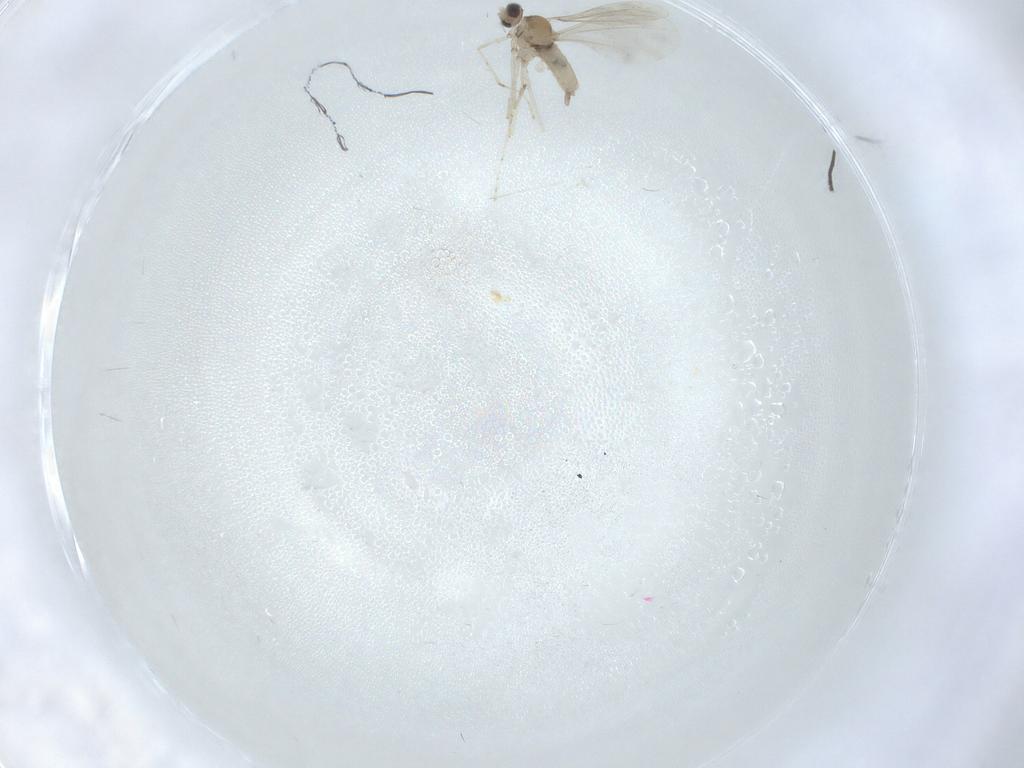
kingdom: Animalia
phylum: Arthropoda
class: Insecta
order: Diptera
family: Cecidomyiidae
